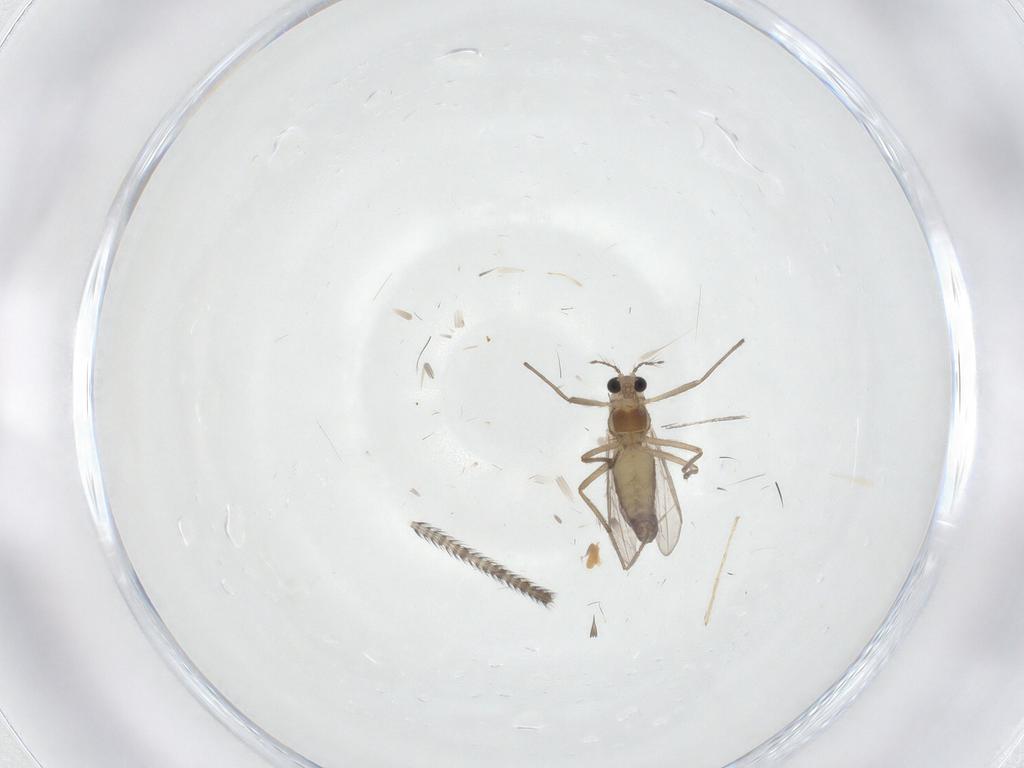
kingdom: Animalia
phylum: Arthropoda
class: Insecta
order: Diptera
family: Chironomidae
